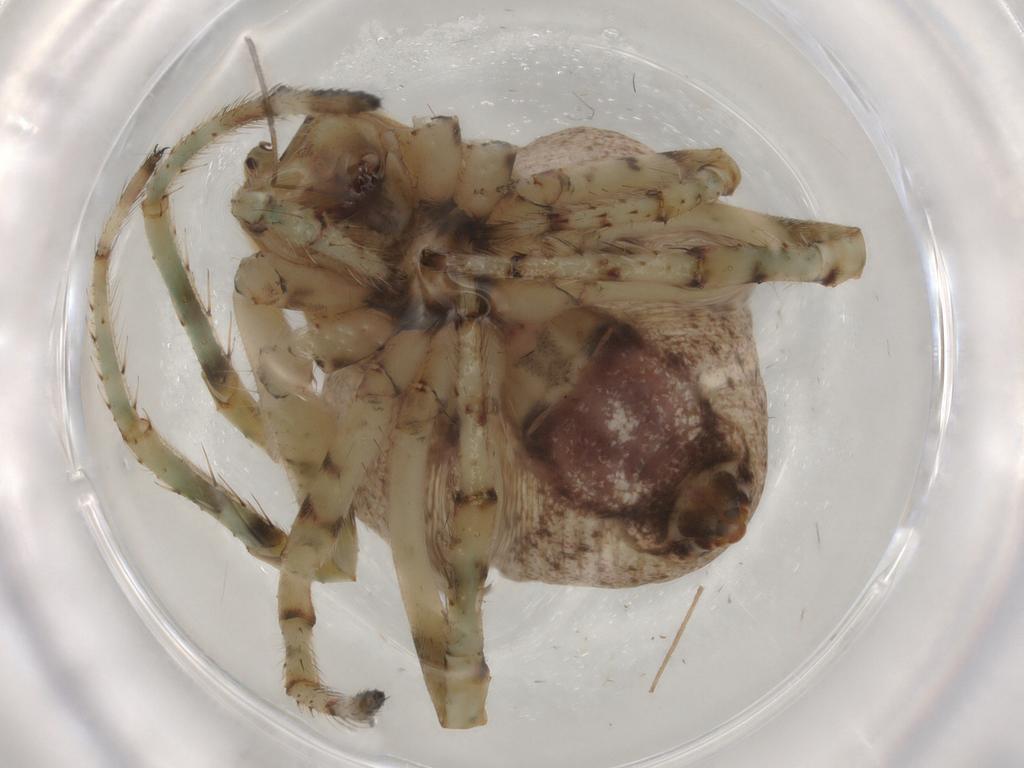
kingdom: Animalia
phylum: Arthropoda
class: Arachnida
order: Araneae
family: Araneidae
